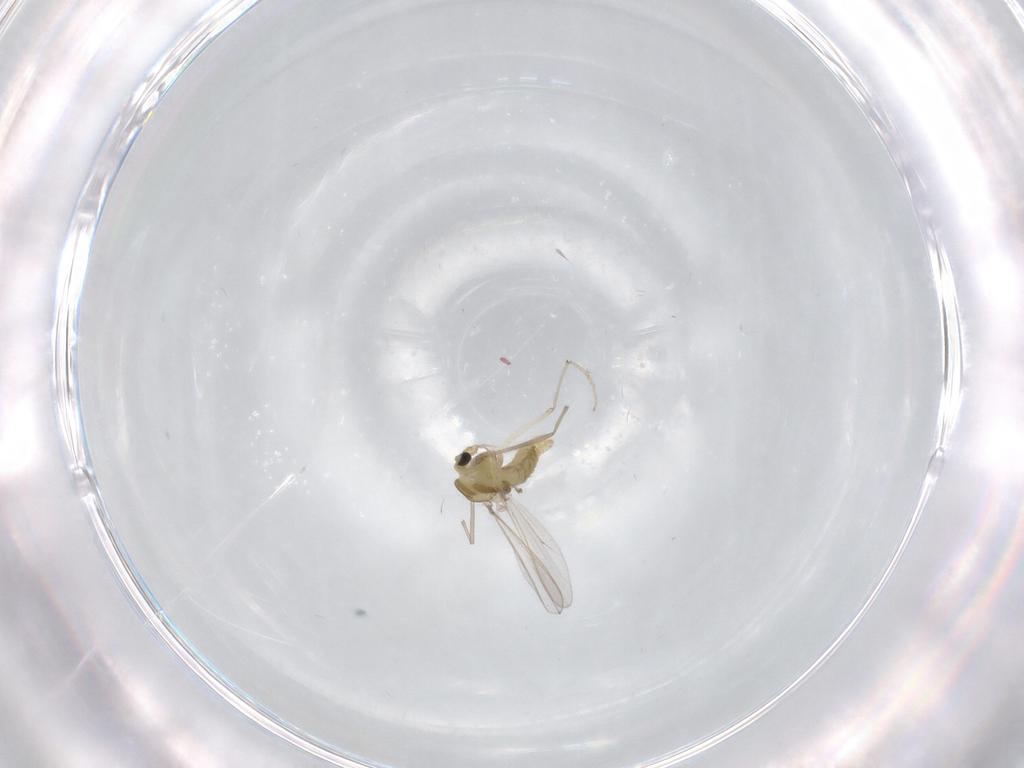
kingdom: Animalia
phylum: Arthropoda
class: Insecta
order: Diptera
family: Chironomidae
